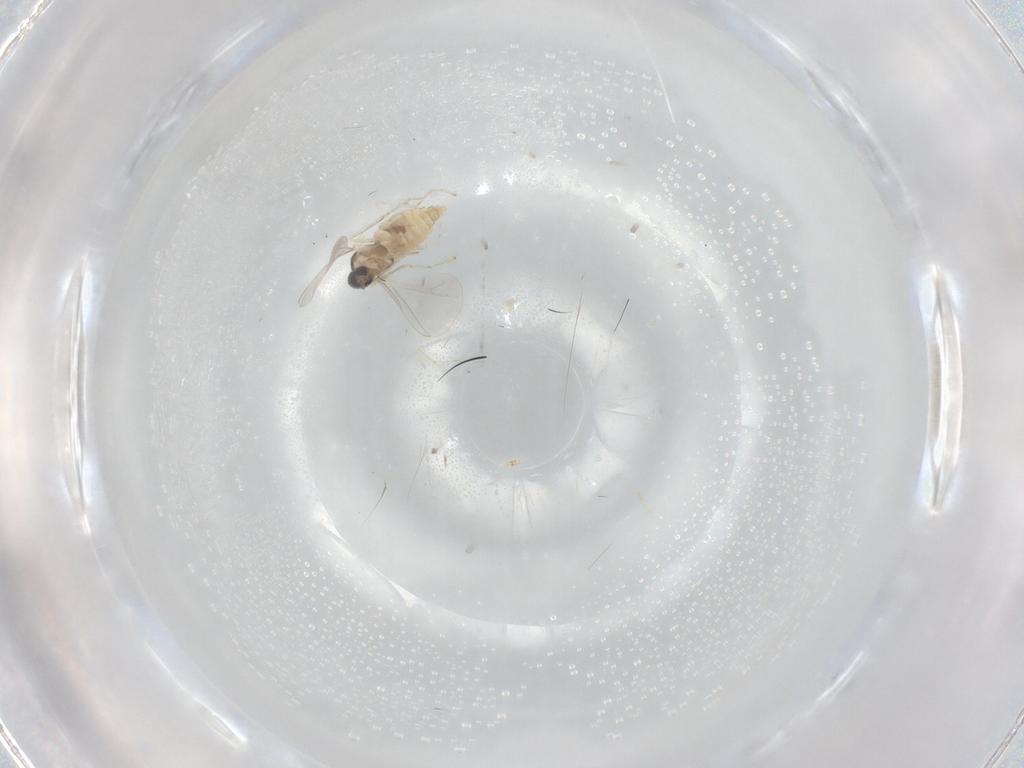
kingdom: Animalia
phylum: Arthropoda
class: Insecta
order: Diptera
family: Cecidomyiidae
